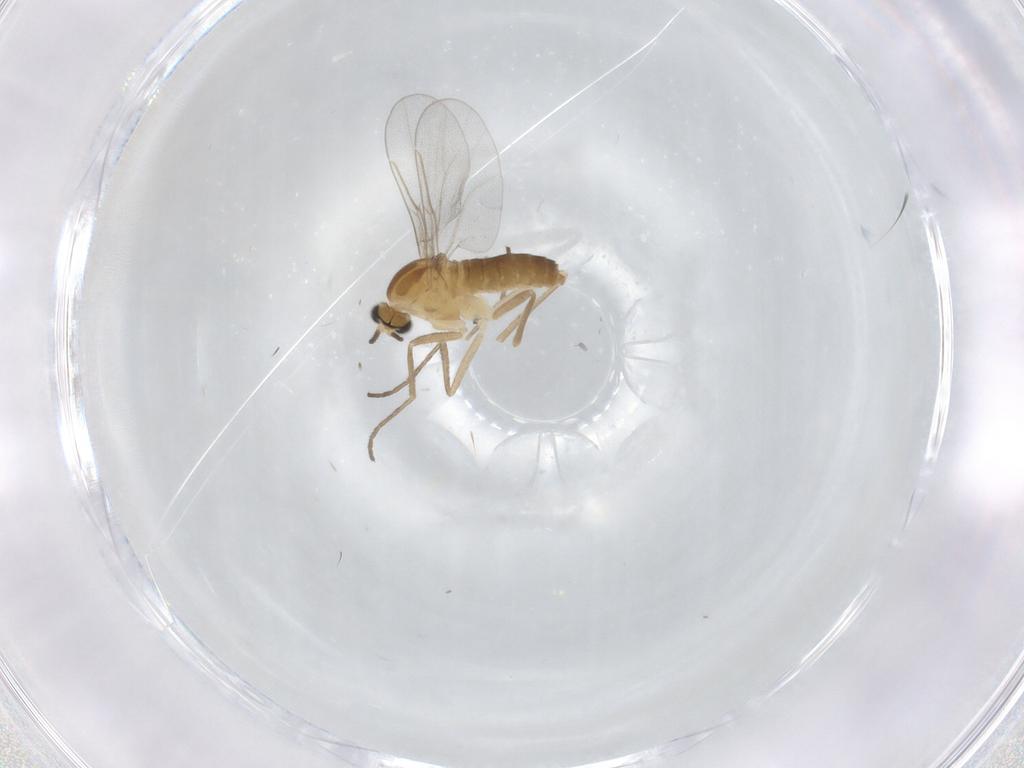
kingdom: Animalia
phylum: Arthropoda
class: Insecta
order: Diptera
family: Cecidomyiidae
